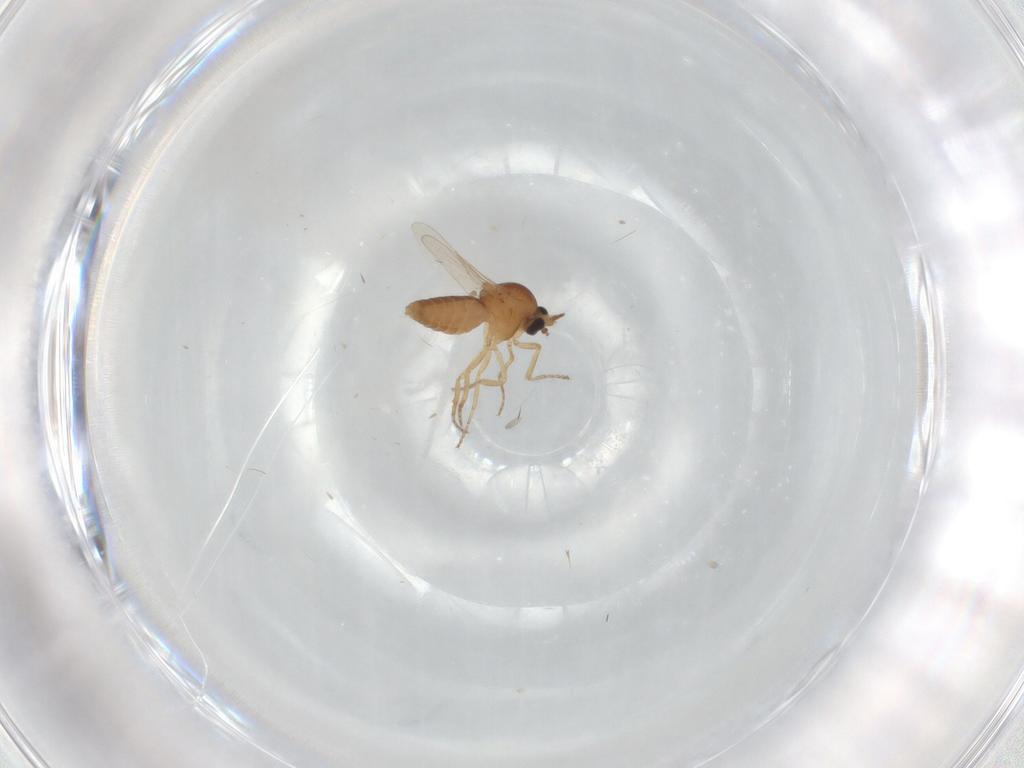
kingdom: Animalia
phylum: Arthropoda
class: Insecta
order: Diptera
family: Ceratopogonidae
